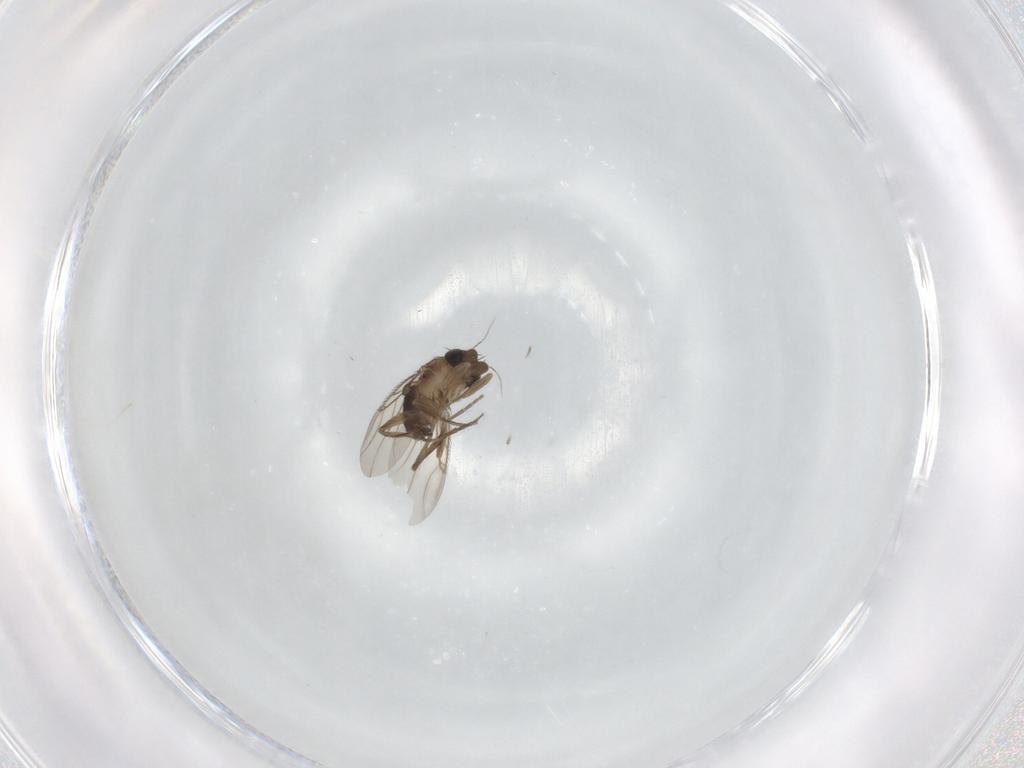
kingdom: Animalia
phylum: Arthropoda
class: Insecta
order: Diptera
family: Phoridae
